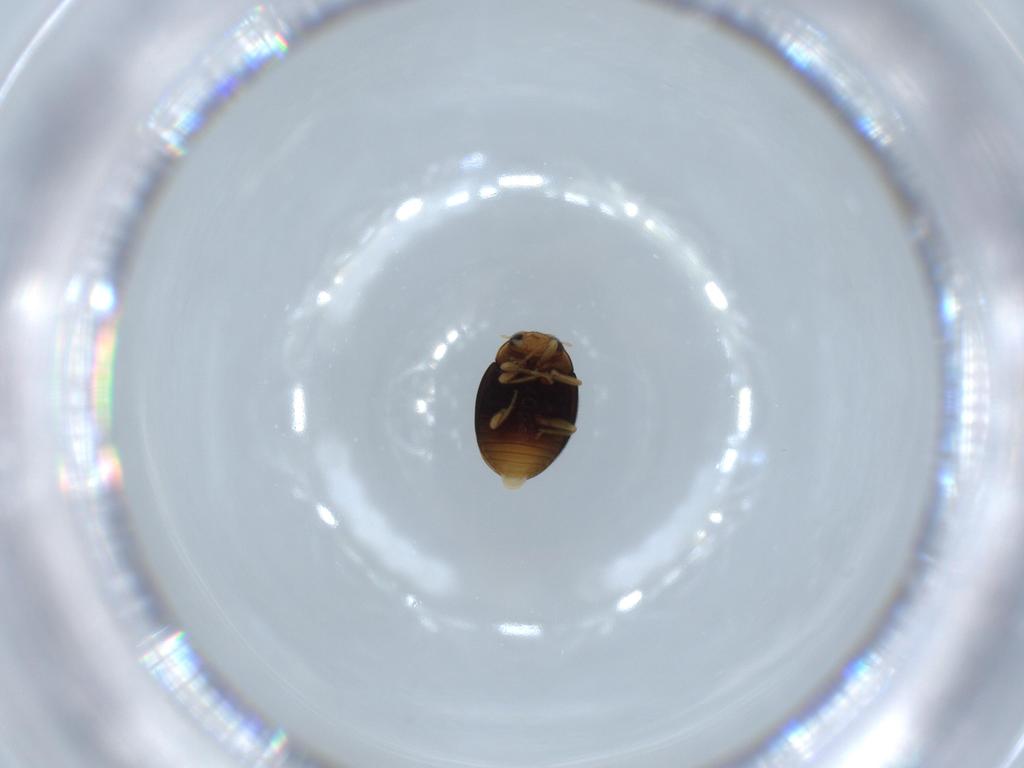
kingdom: Animalia
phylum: Arthropoda
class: Insecta
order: Coleoptera
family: Coccinellidae
